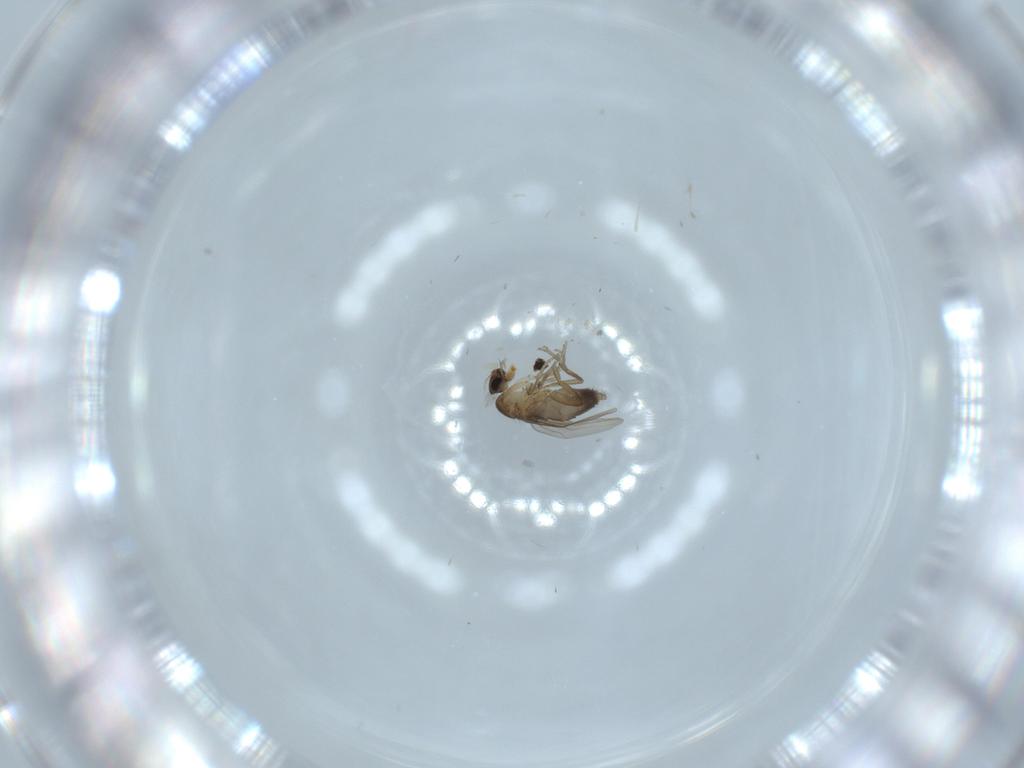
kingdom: Animalia
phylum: Arthropoda
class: Insecta
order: Diptera
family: Phoridae
